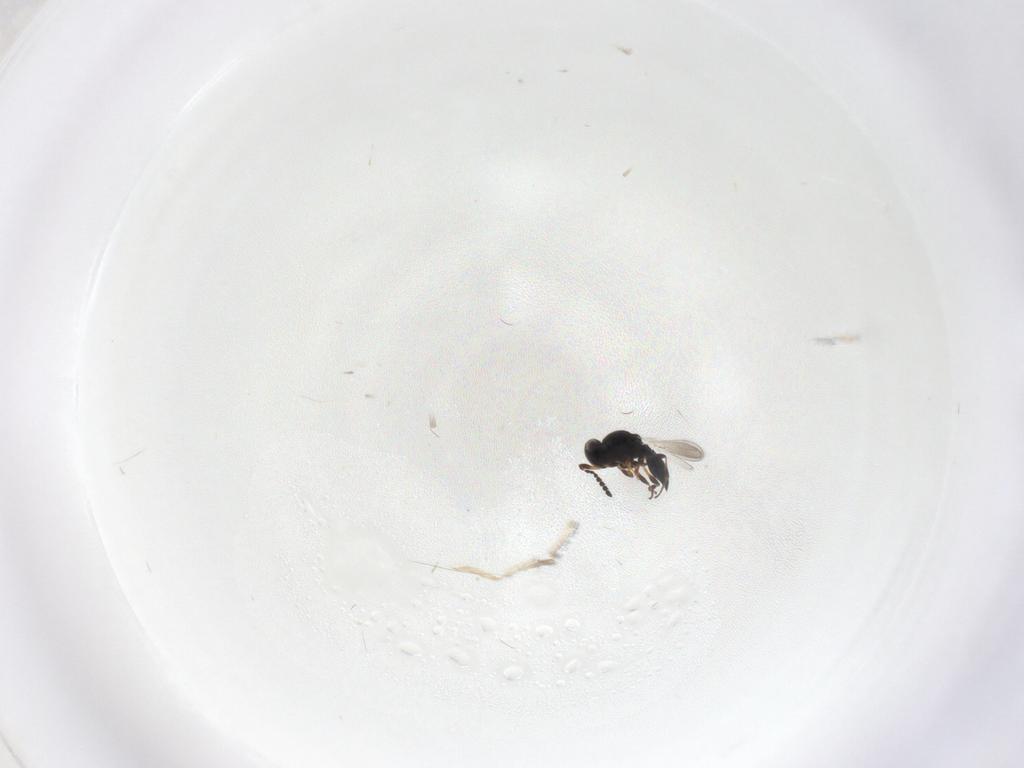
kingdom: Animalia
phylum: Arthropoda
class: Insecta
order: Hymenoptera
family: Platygastridae
